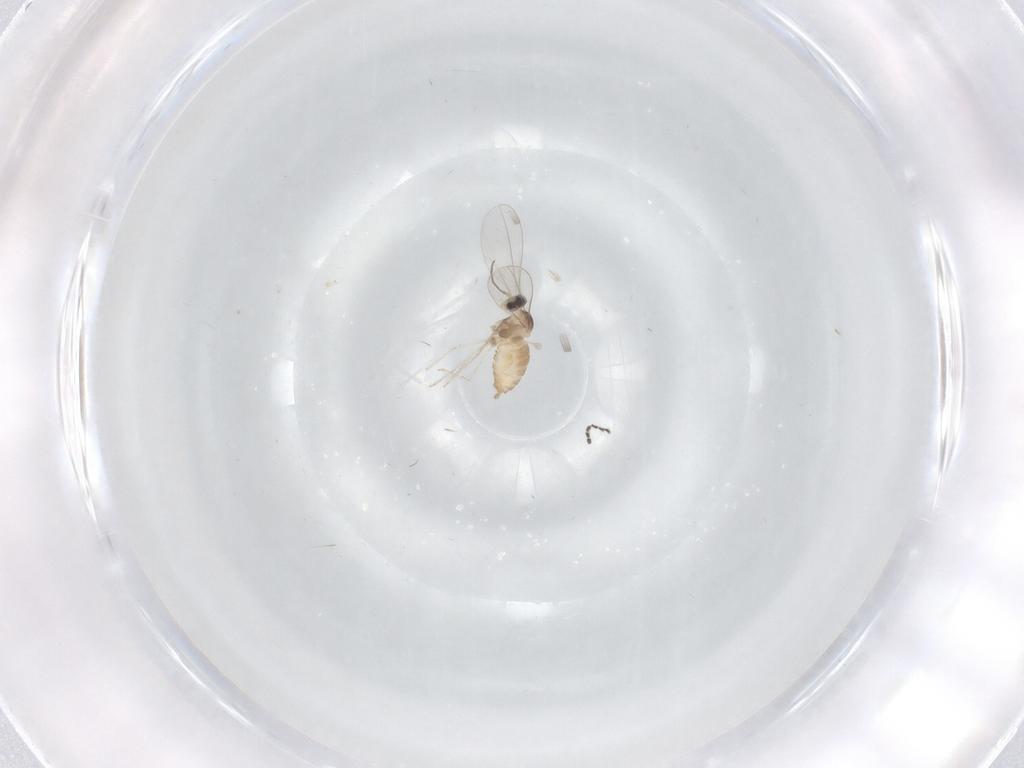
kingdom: Animalia
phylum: Arthropoda
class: Insecta
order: Diptera
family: Cecidomyiidae
